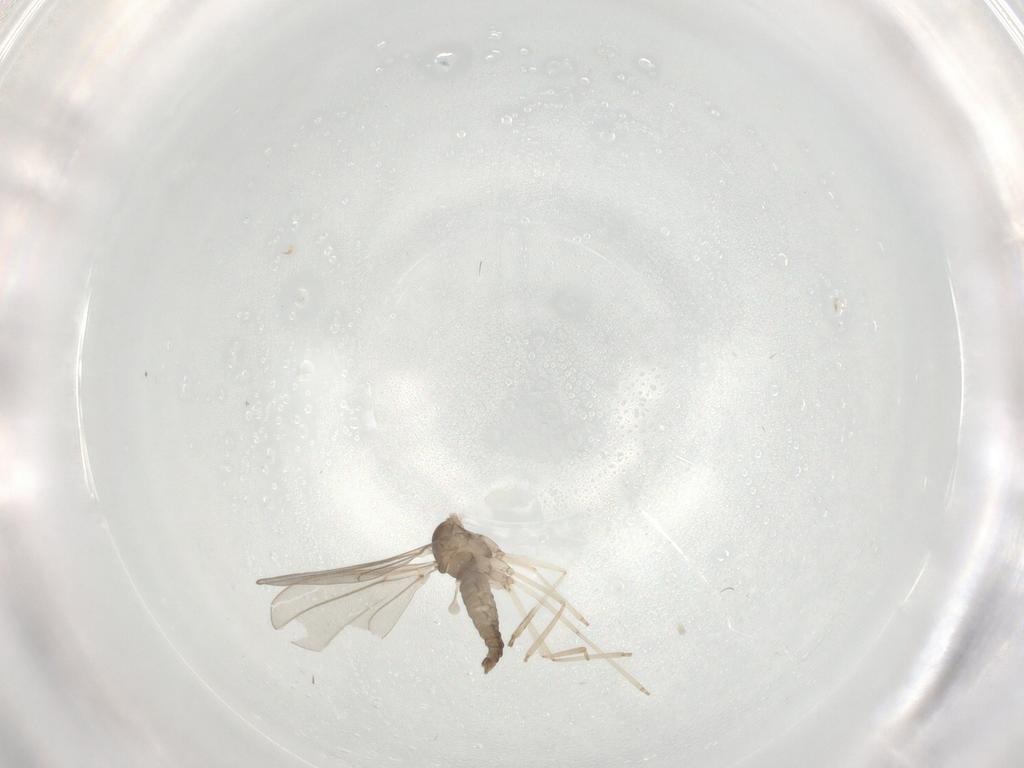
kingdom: Animalia
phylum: Arthropoda
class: Insecta
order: Diptera
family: Cecidomyiidae
